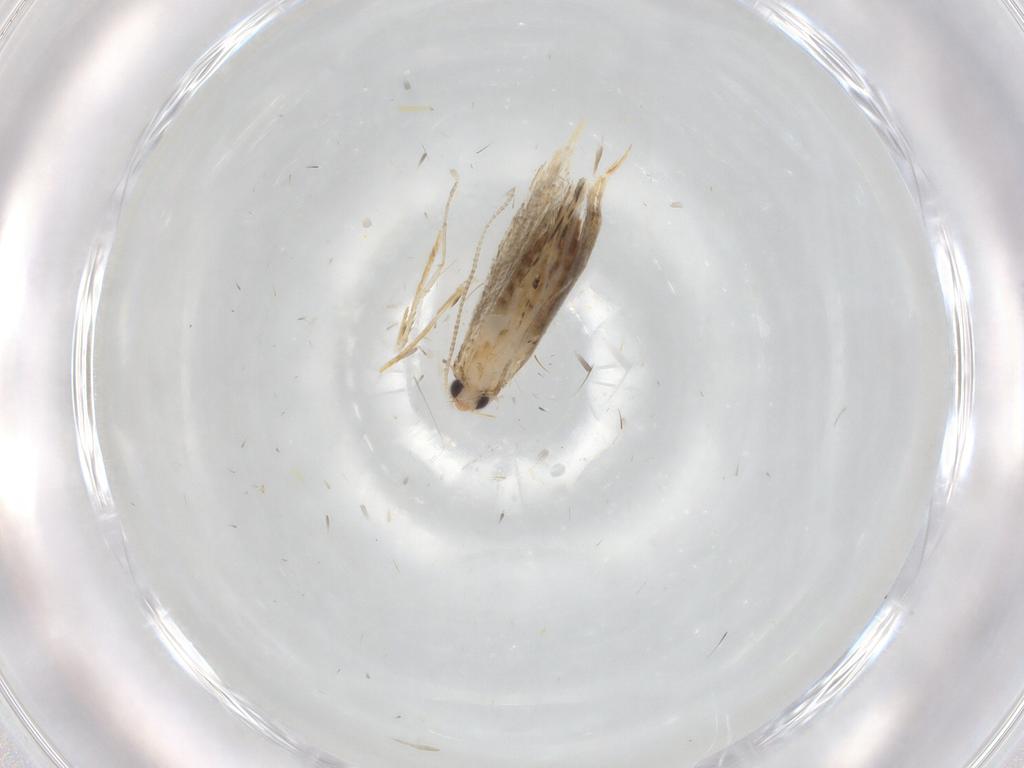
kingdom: Animalia
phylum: Arthropoda
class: Insecta
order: Lepidoptera
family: Tineidae
